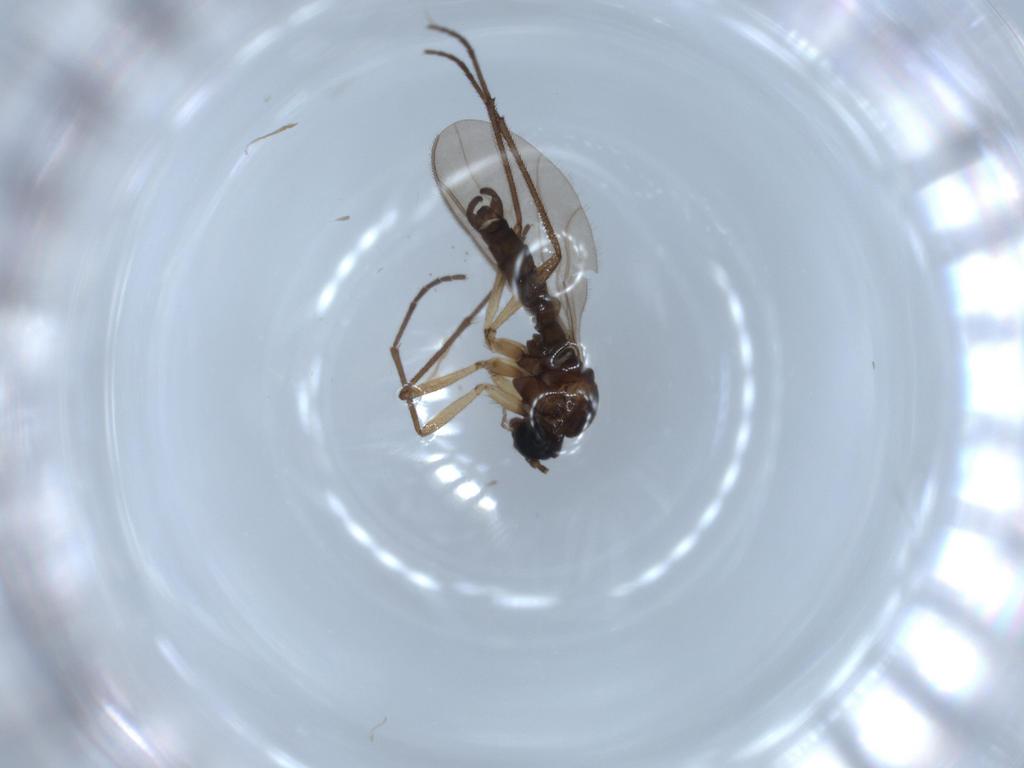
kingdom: Animalia
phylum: Arthropoda
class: Insecta
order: Diptera
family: Sciaridae
